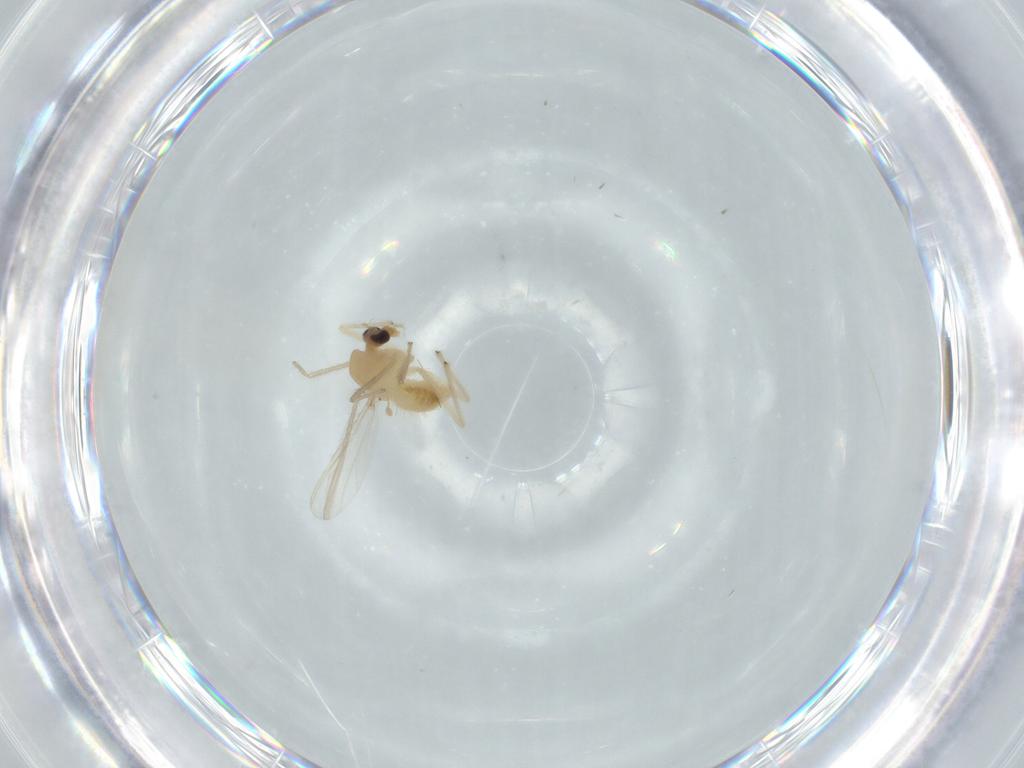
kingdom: Animalia
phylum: Arthropoda
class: Insecta
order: Diptera
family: Chironomidae
